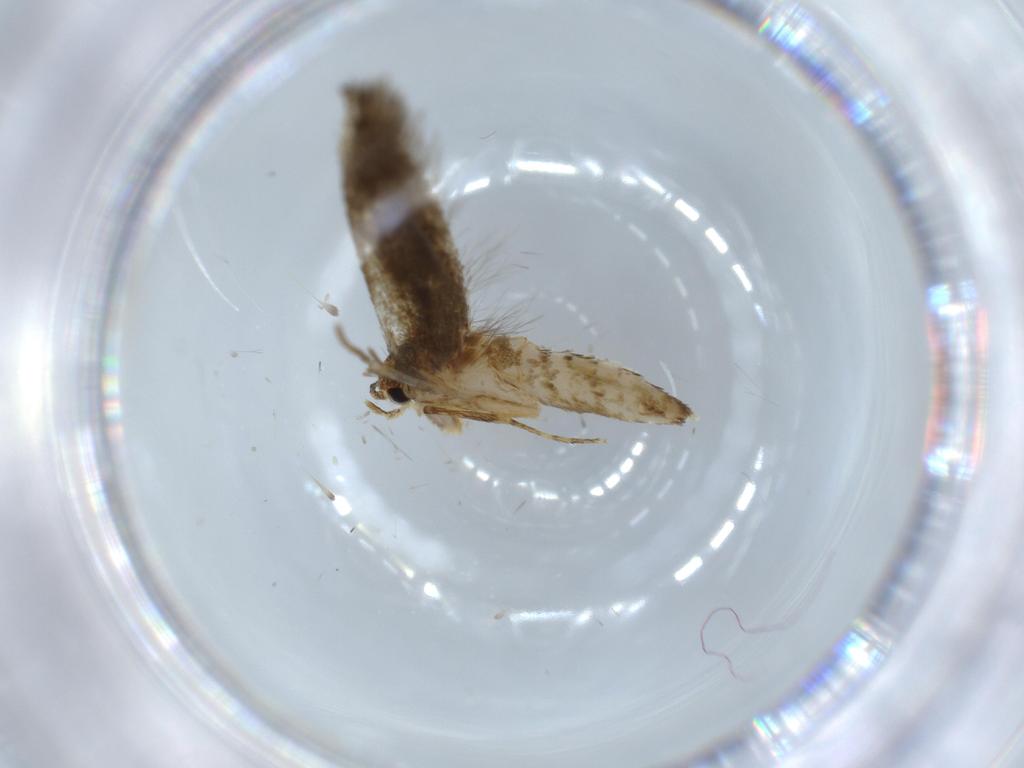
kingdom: Animalia
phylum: Arthropoda
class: Insecta
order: Lepidoptera
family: Tineidae
